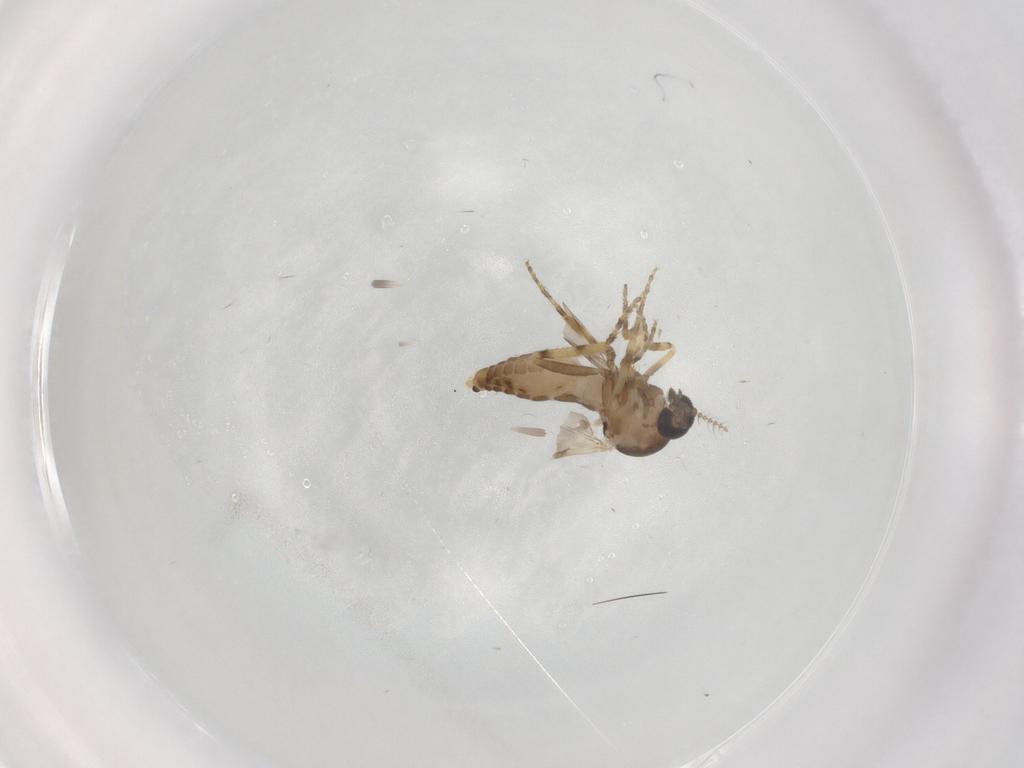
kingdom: Animalia
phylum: Arthropoda
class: Insecta
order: Diptera
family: Ceratopogonidae
